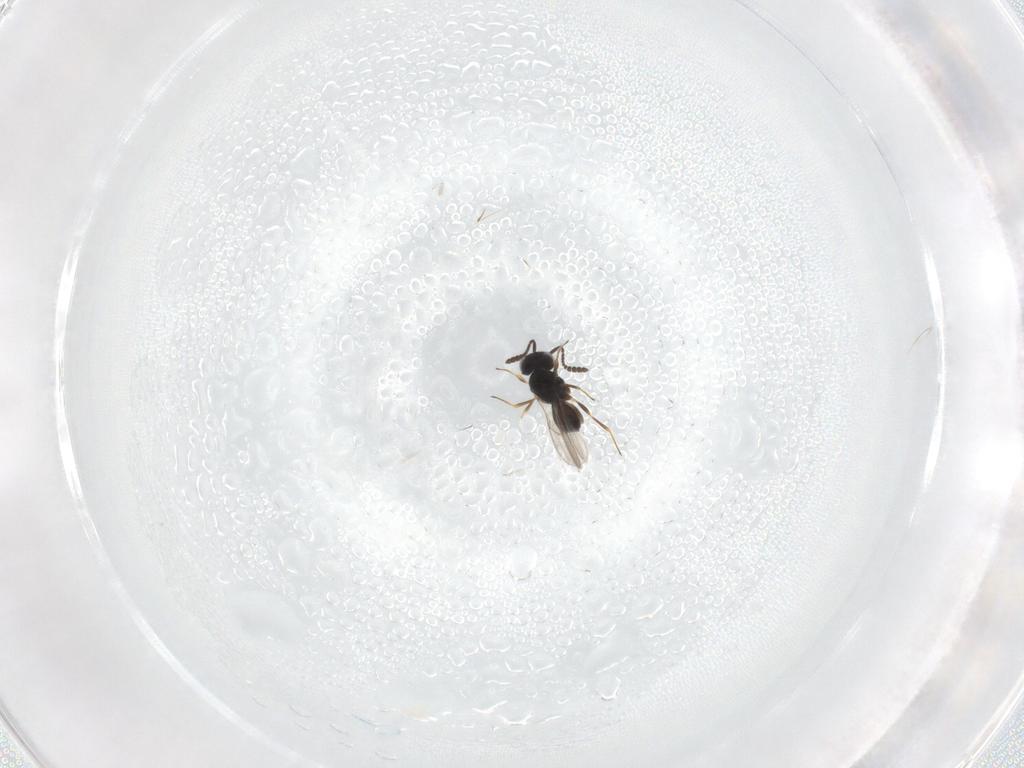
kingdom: Animalia
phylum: Arthropoda
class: Insecta
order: Hymenoptera
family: Scelionidae
